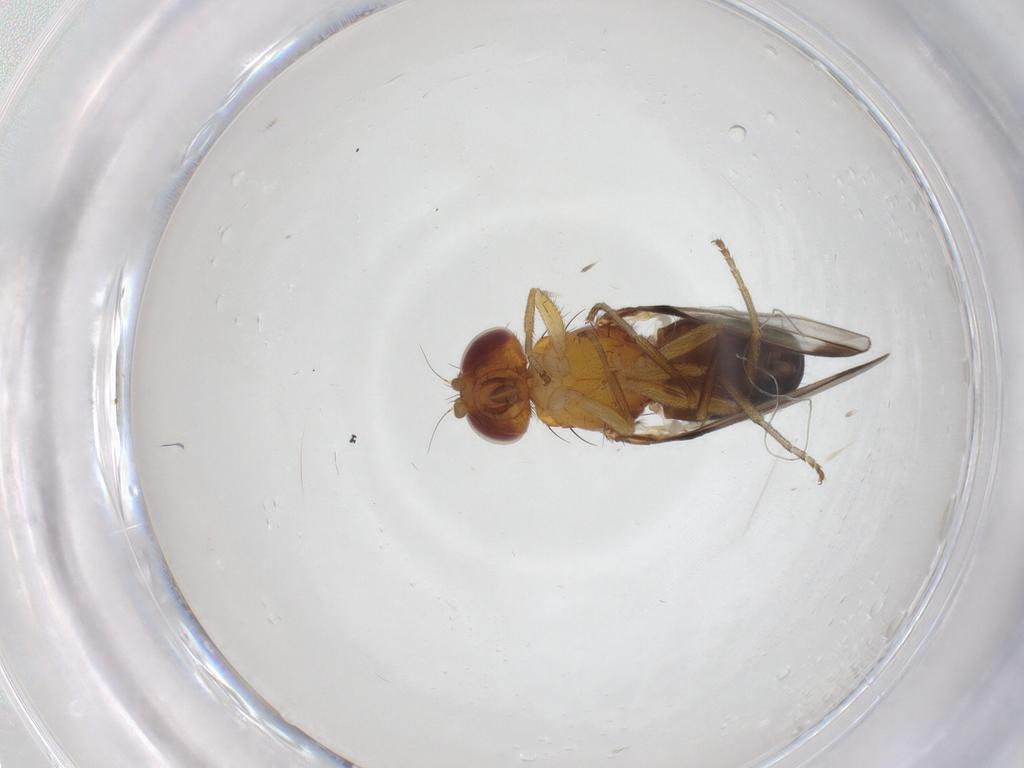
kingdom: Animalia
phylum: Arthropoda
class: Insecta
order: Diptera
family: Piophilidae
